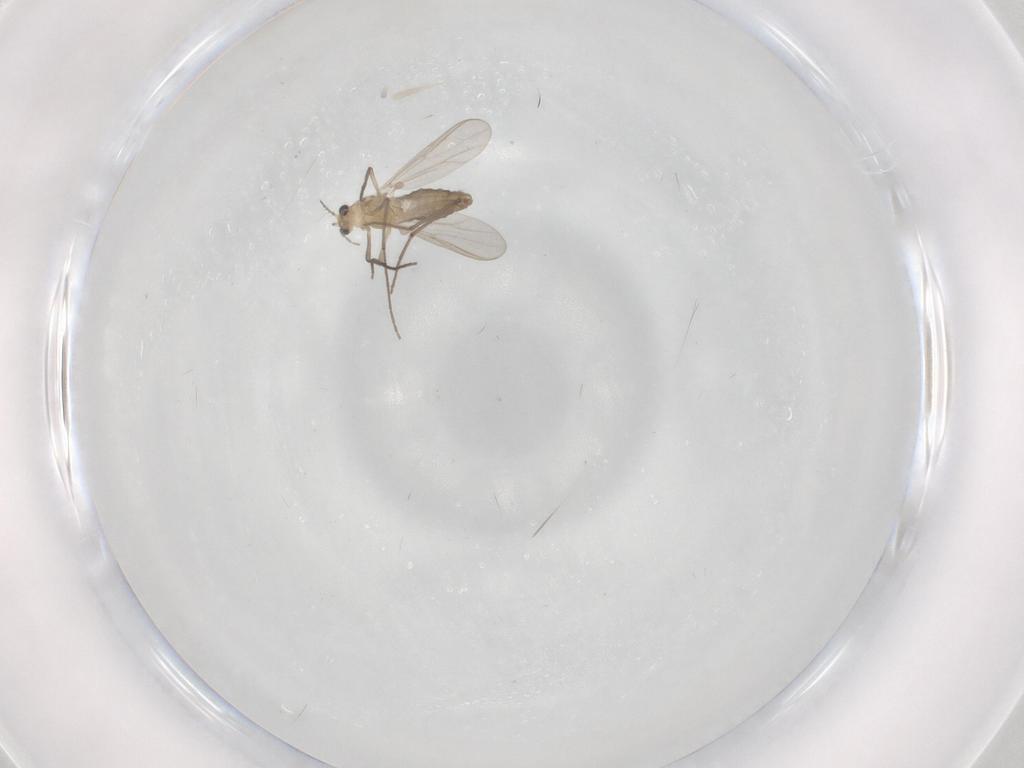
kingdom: Animalia
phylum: Arthropoda
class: Insecta
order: Diptera
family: Chironomidae
